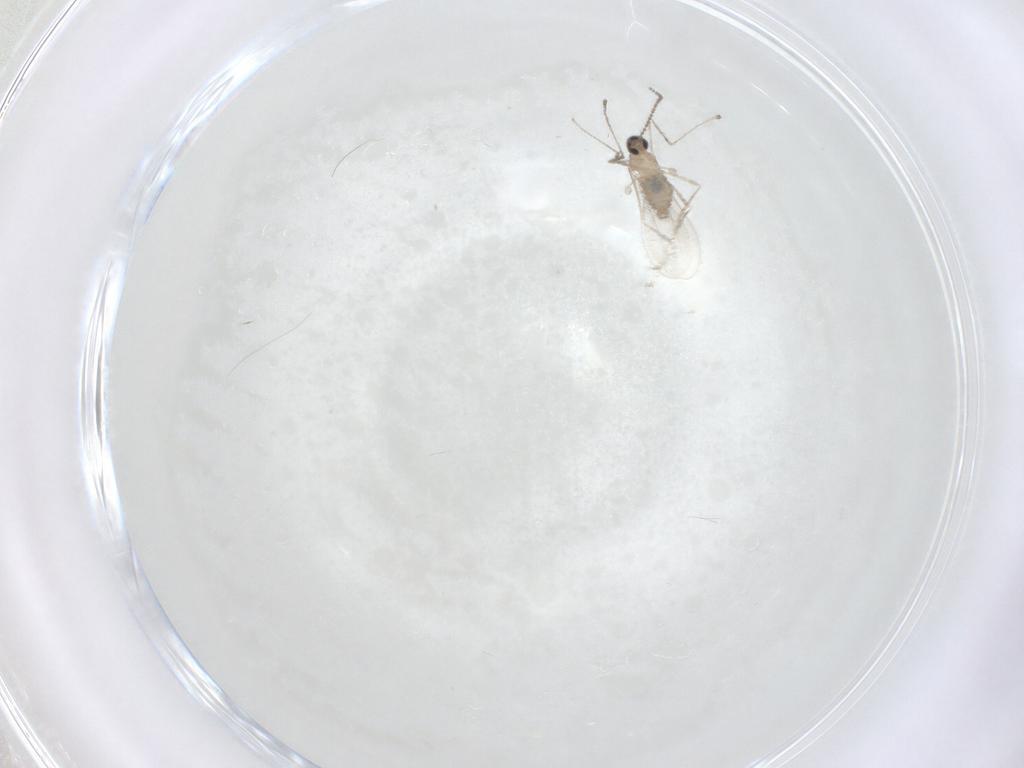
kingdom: Animalia
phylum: Arthropoda
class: Insecta
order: Diptera
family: Cecidomyiidae
